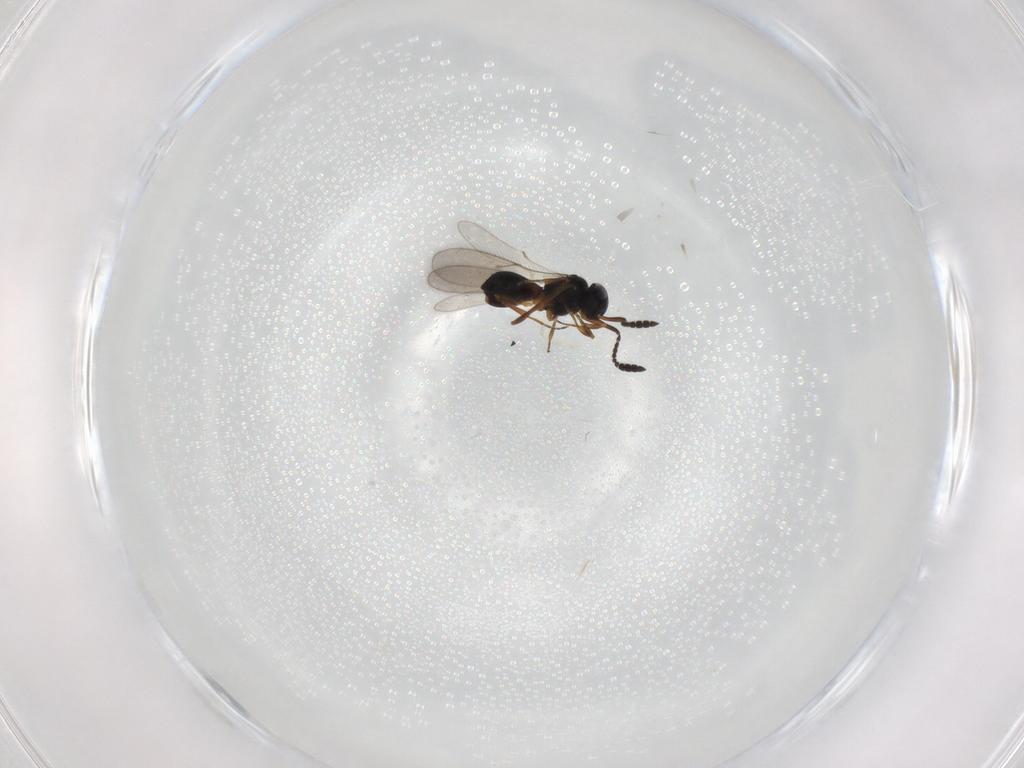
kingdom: Animalia
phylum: Arthropoda
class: Insecta
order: Hymenoptera
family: Scelionidae
